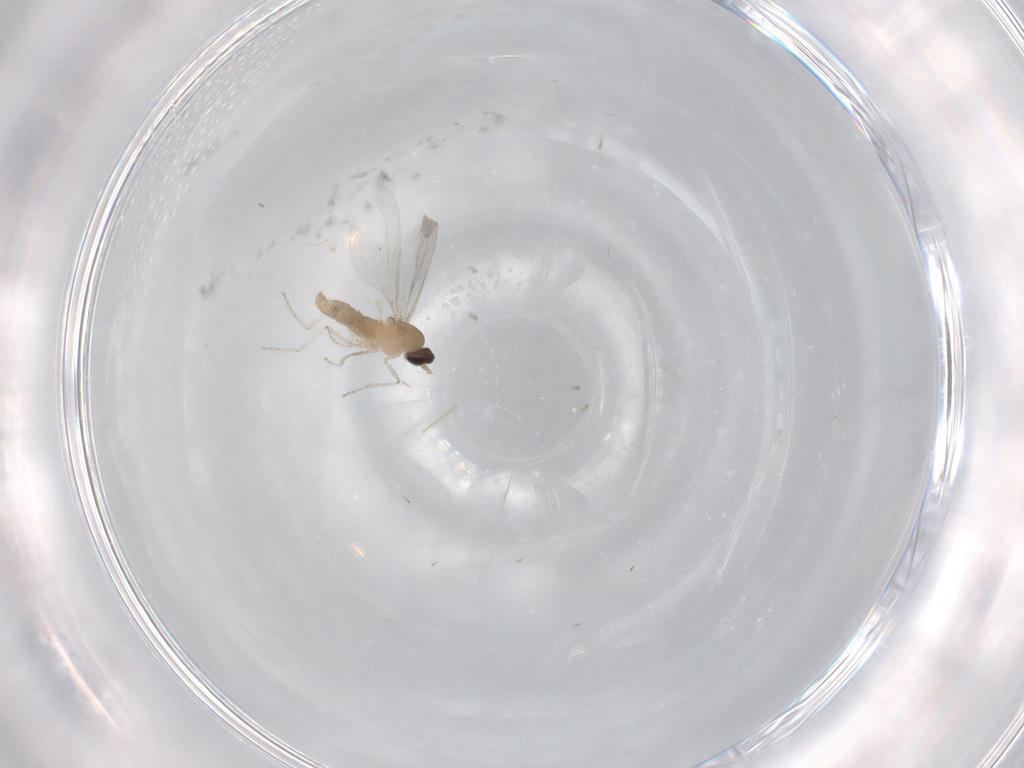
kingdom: Animalia
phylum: Arthropoda
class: Insecta
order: Diptera
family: Cecidomyiidae
